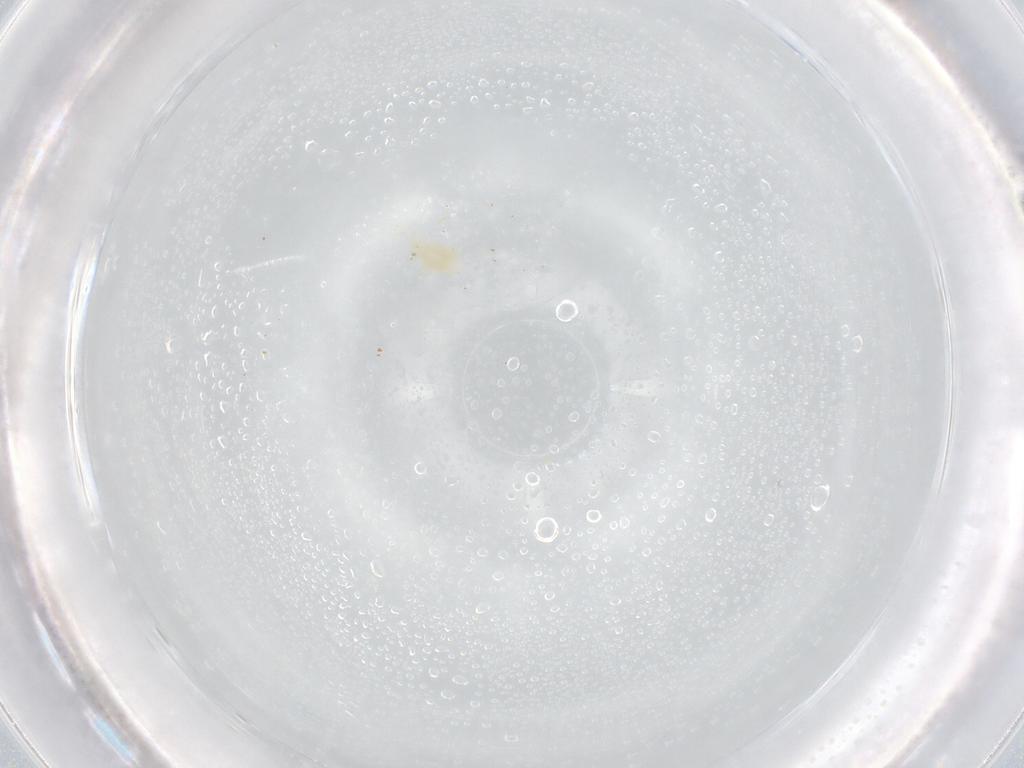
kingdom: Animalia
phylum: Arthropoda
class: Arachnida
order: Trombidiformes
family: Eupodidae
